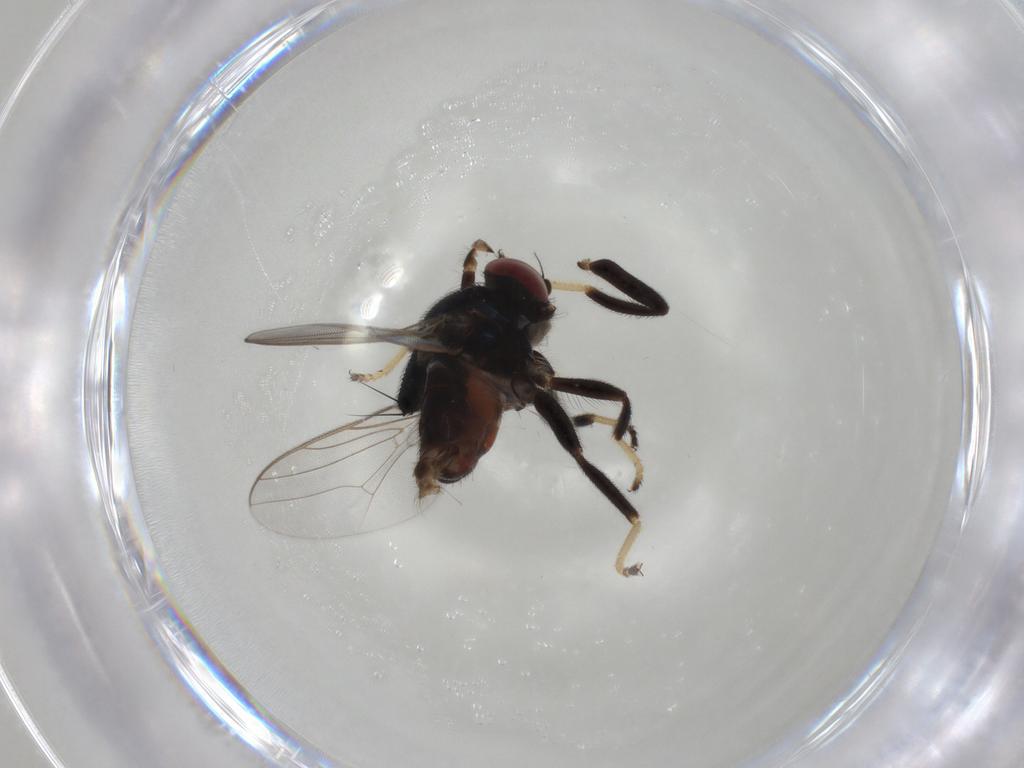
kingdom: Animalia
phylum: Arthropoda
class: Insecta
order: Diptera
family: Chloropidae
